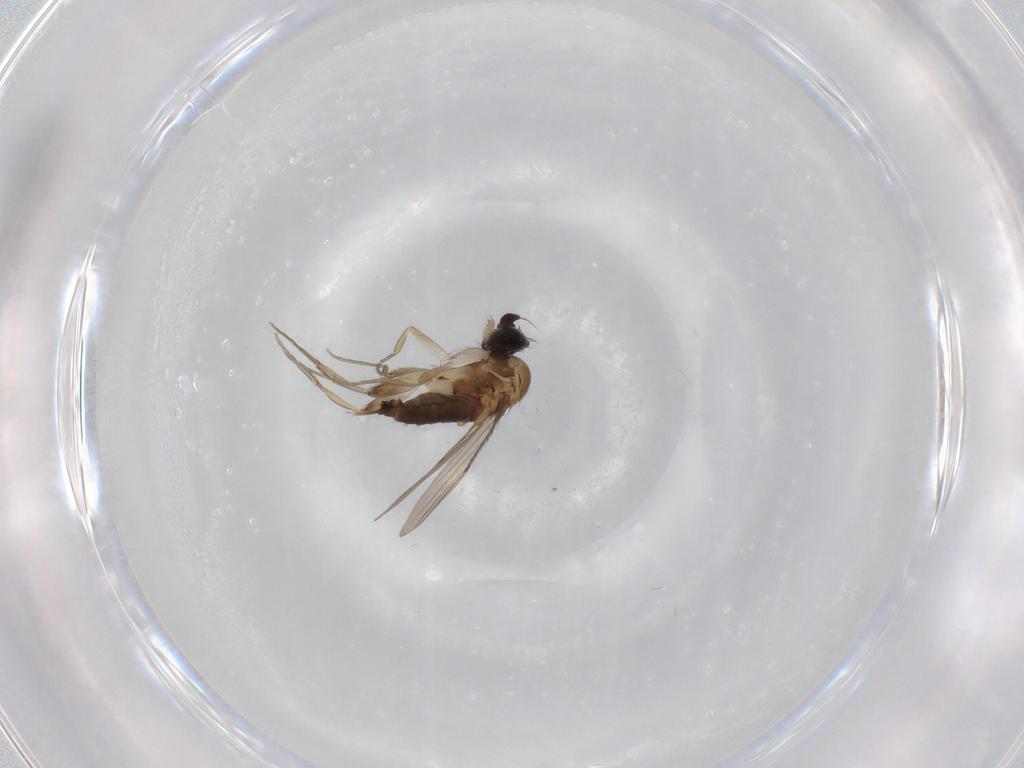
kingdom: Animalia
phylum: Arthropoda
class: Insecta
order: Diptera
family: Phoridae
